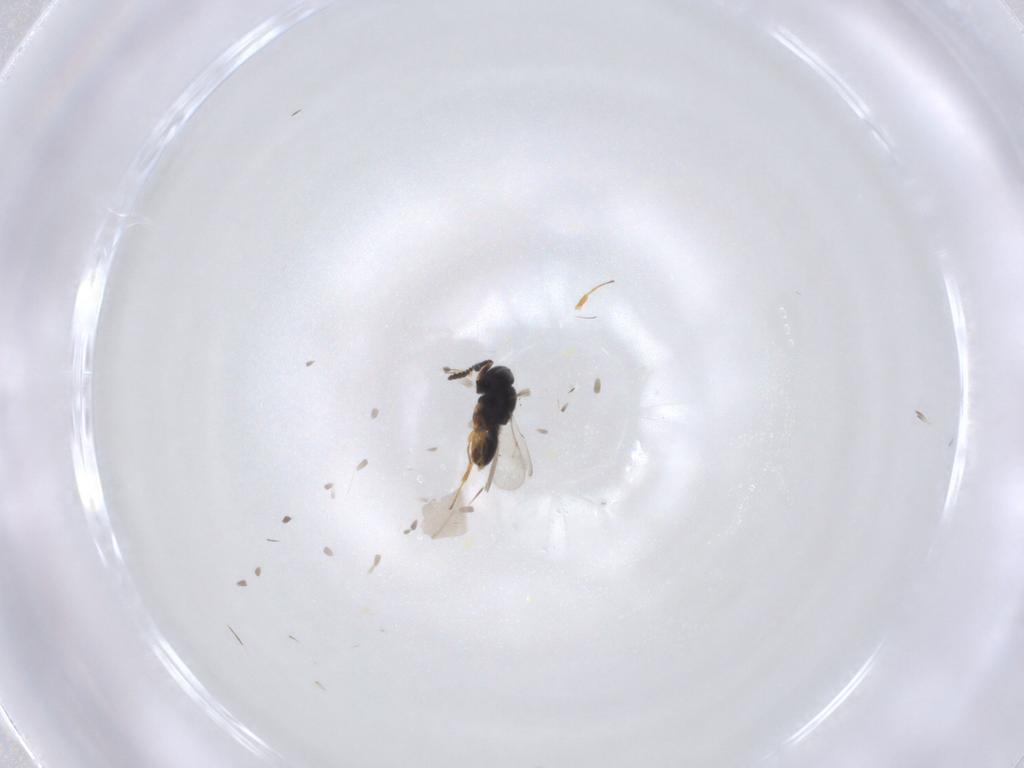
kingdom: Animalia
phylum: Arthropoda
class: Insecta
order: Hymenoptera
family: Scelionidae
